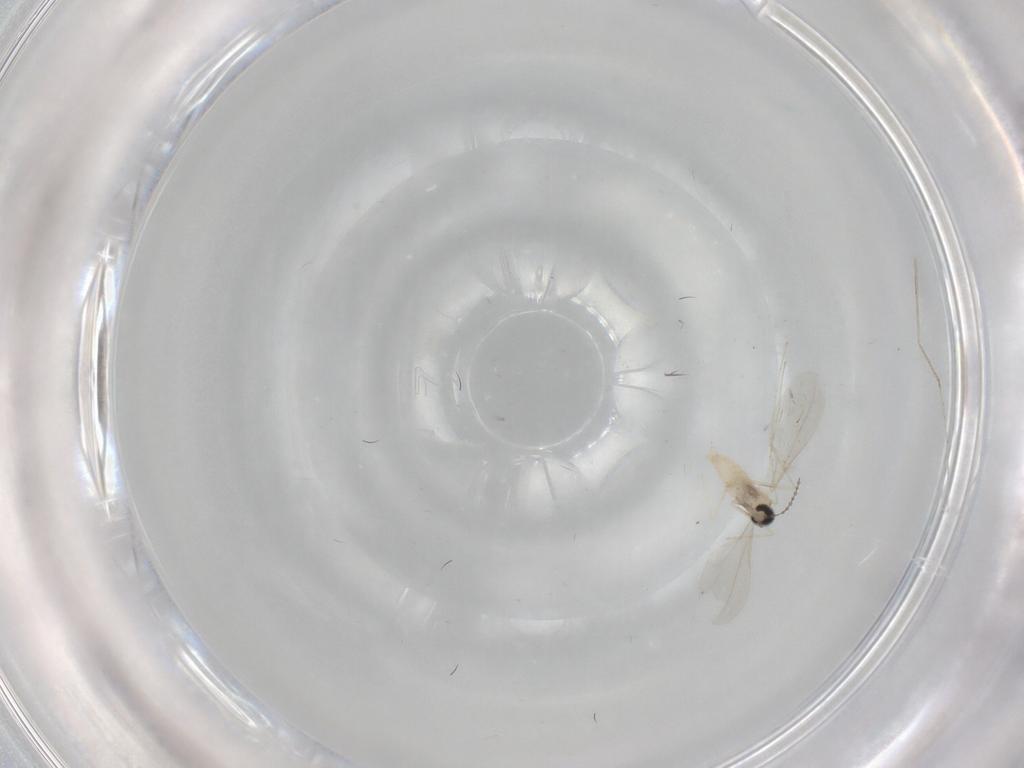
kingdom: Animalia
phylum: Arthropoda
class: Insecta
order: Diptera
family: Cecidomyiidae
